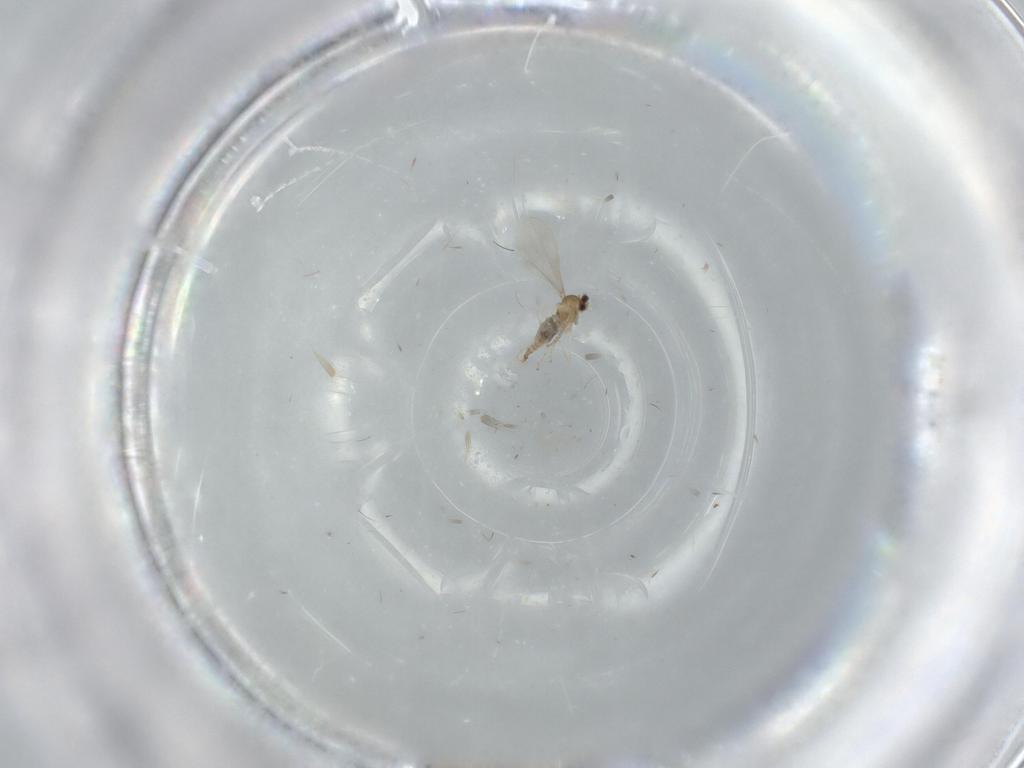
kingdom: Animalia
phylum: Arthropoda
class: Insecta
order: Diptera
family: Cecidomyiidae
